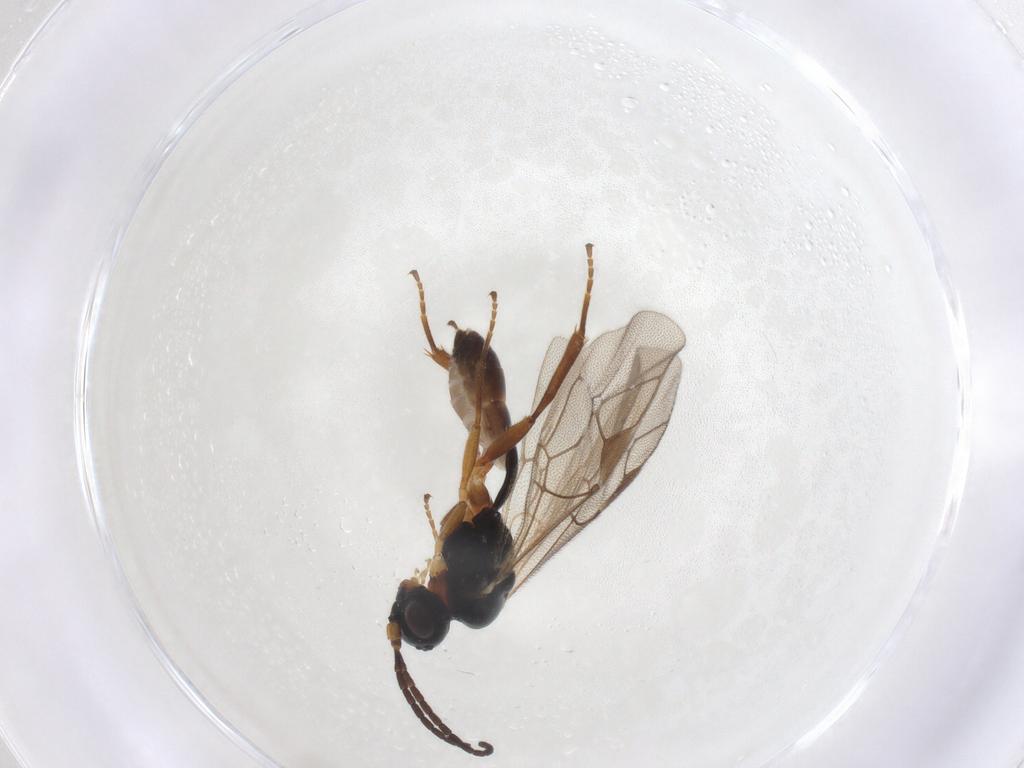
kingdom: Animalia
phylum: Arthropoda
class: Insecta
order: Hymenoptera
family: Ichneumonidae
